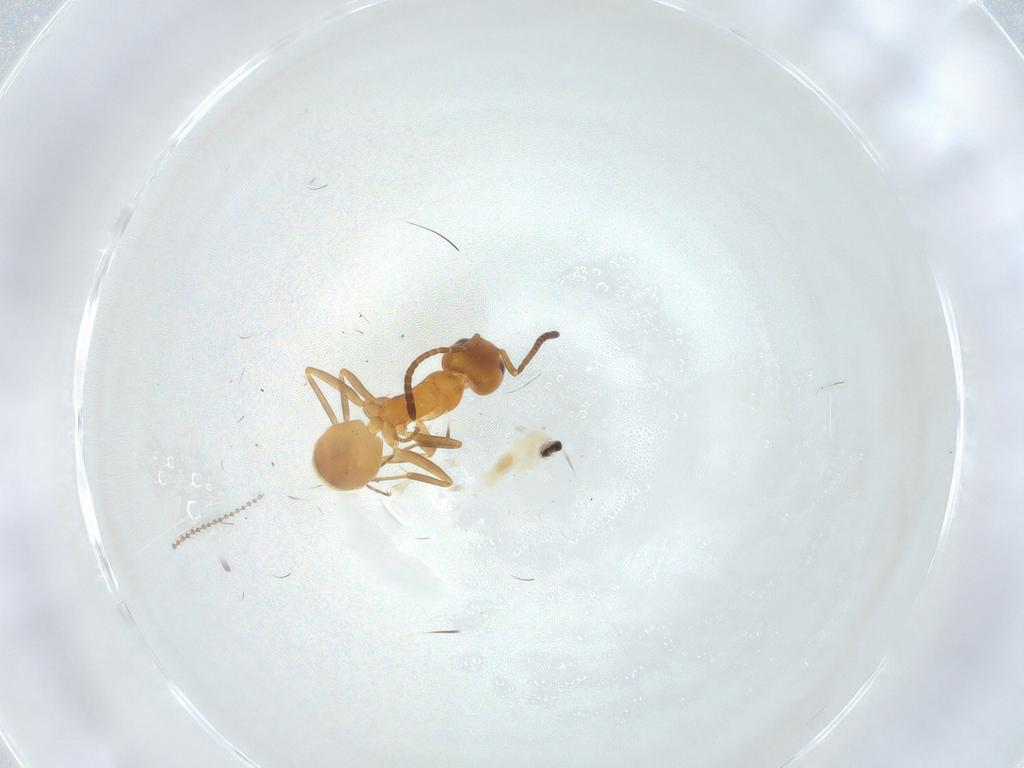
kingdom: Animalia
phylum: Arthropoda
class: Insecta
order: Hymenoptera
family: Formicidae
